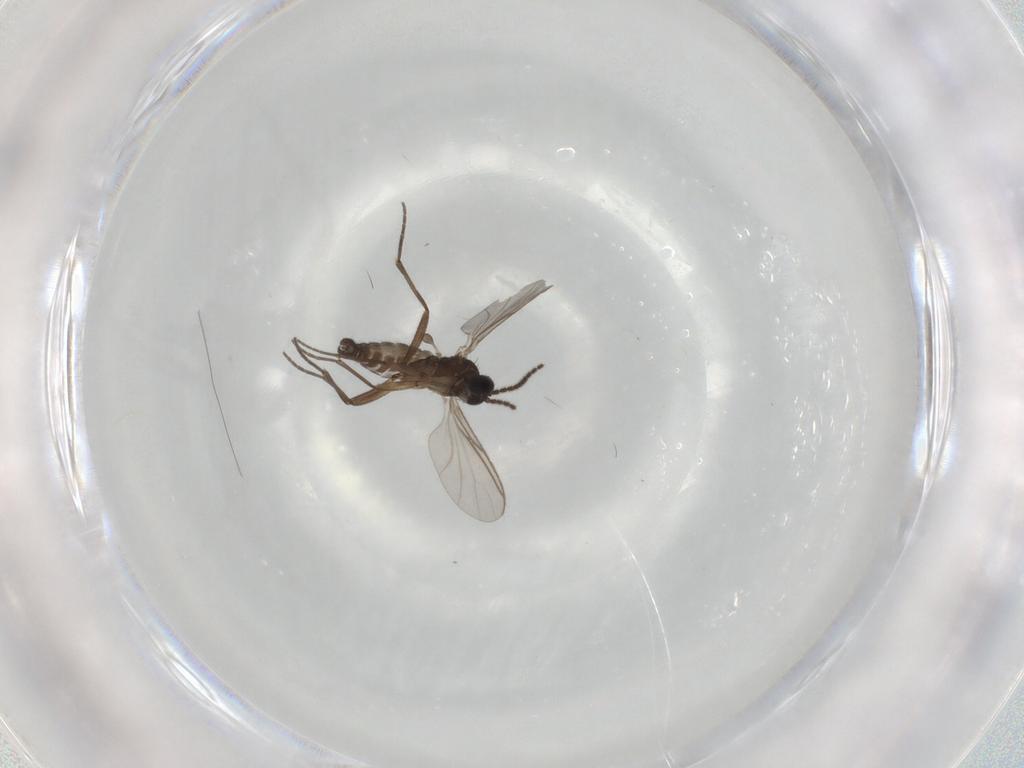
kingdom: Animalia
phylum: Arthropoda
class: Insecta
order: Diptera
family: Sciaridae
